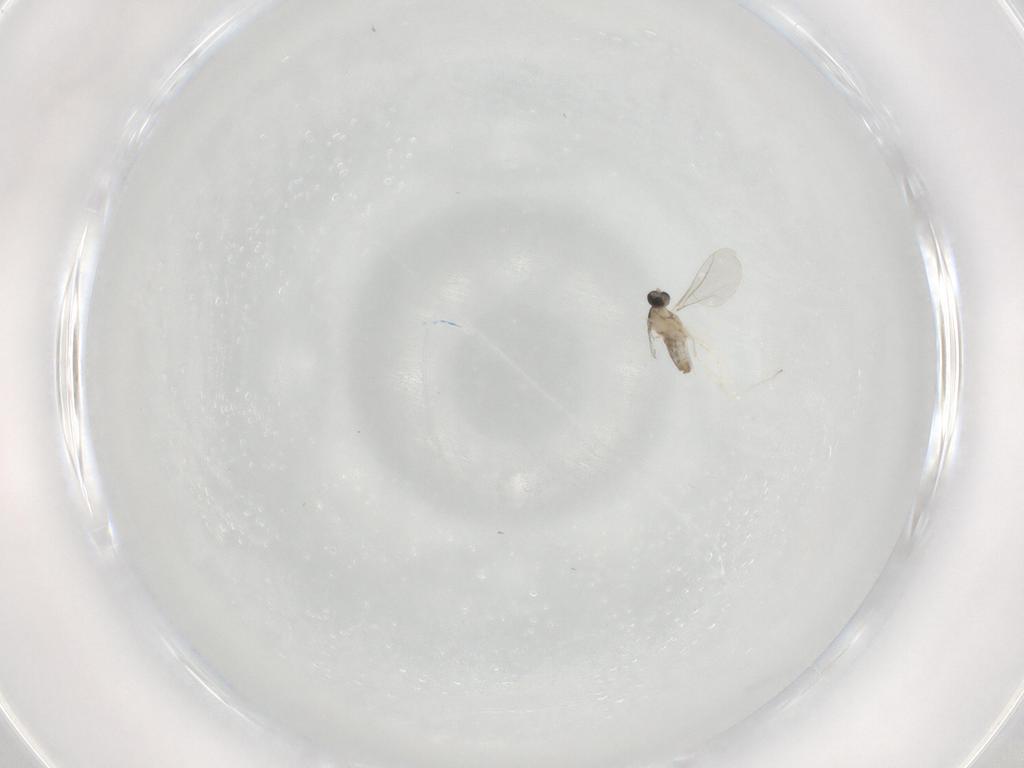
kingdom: Animalia
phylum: Arthropoda
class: Insecta
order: Diptera
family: Cecidomyiidae
